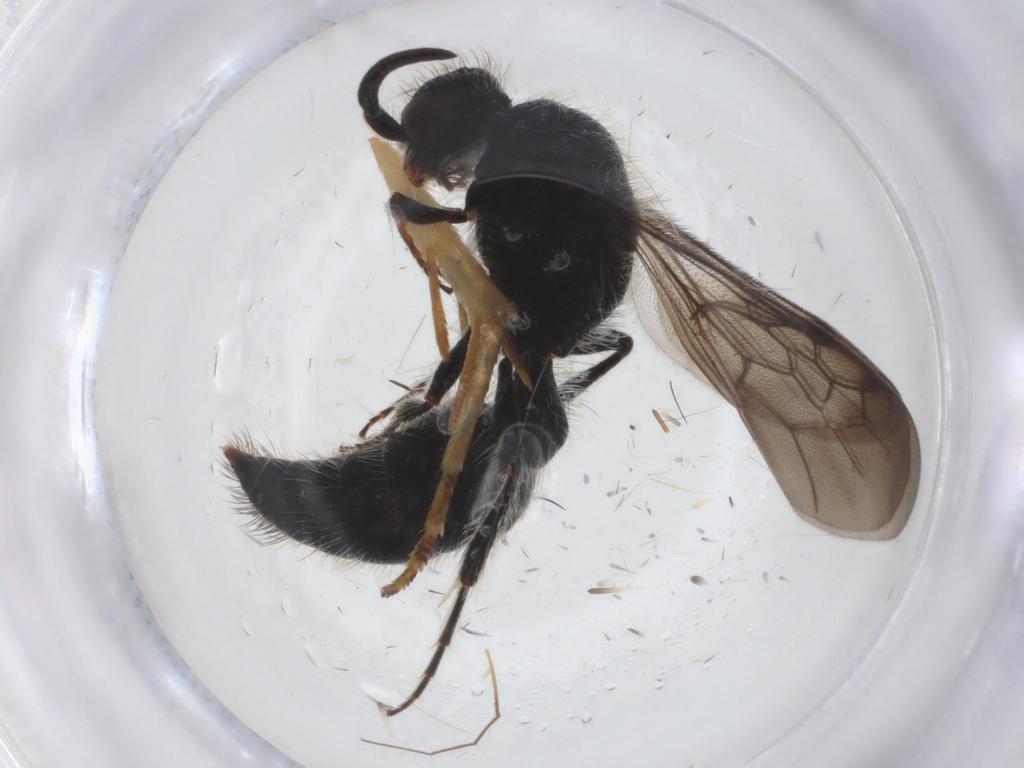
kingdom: Animalia
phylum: Arthropoda
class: Insecta
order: Hymenoptera
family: Mutillidae
